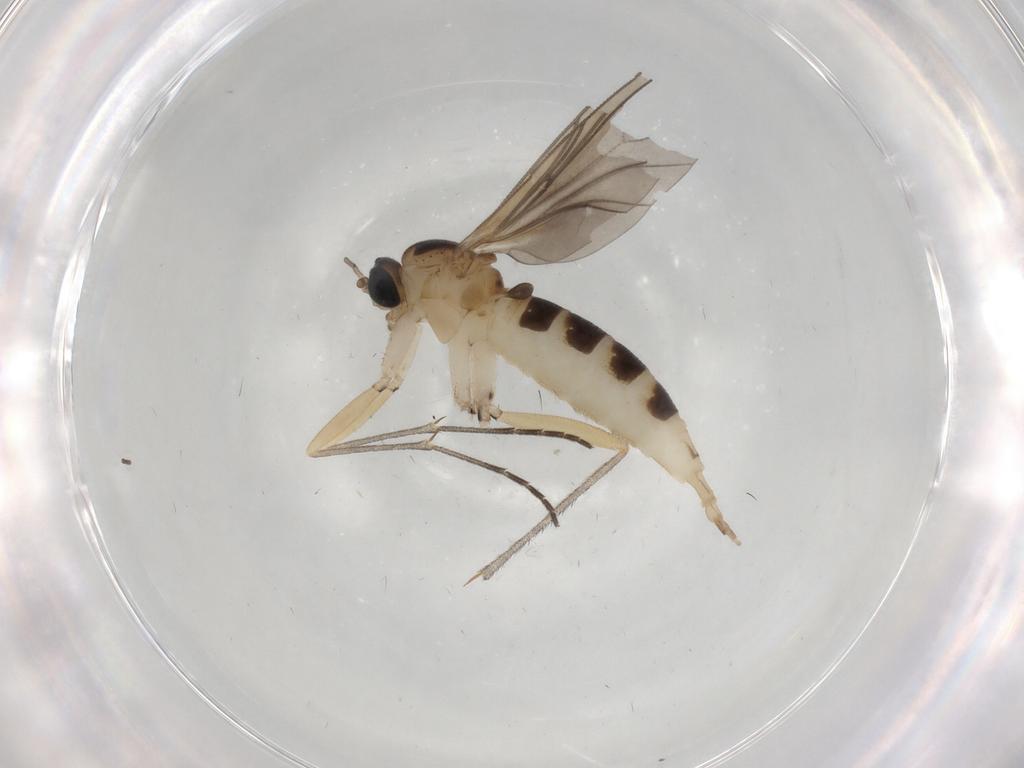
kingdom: Animalia
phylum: Arthropoda
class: Insecta
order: Diptera
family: Sciaridae
